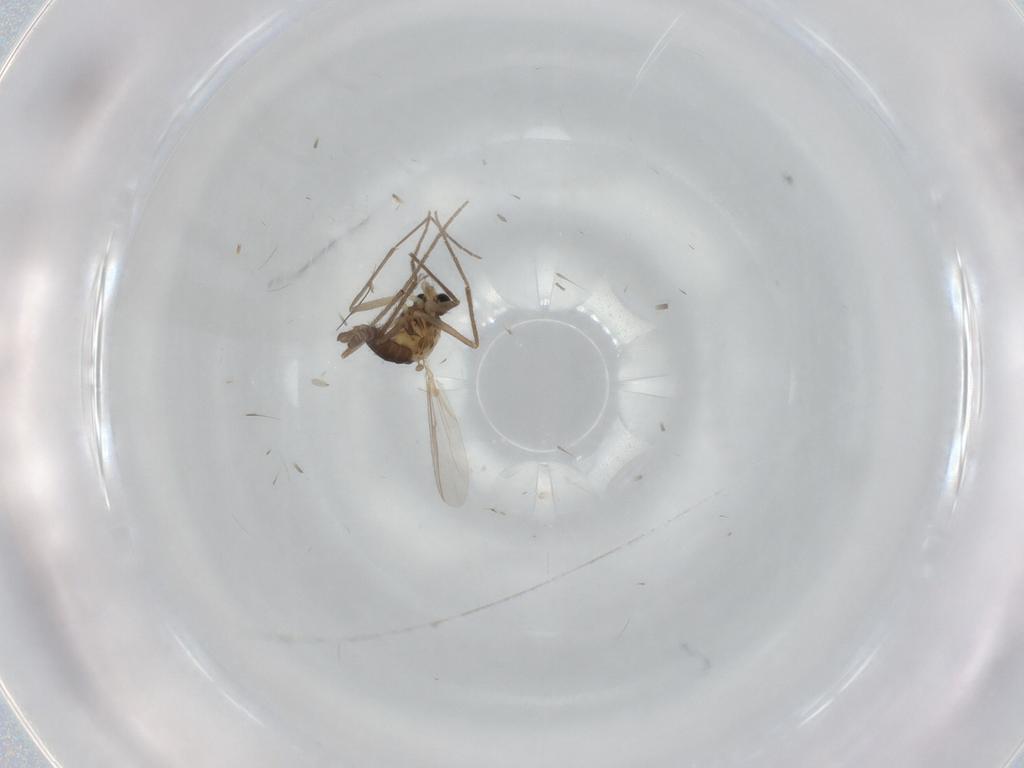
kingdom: Animalia
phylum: Arthropoda
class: Insecta
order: Diptera
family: Chironomidae
